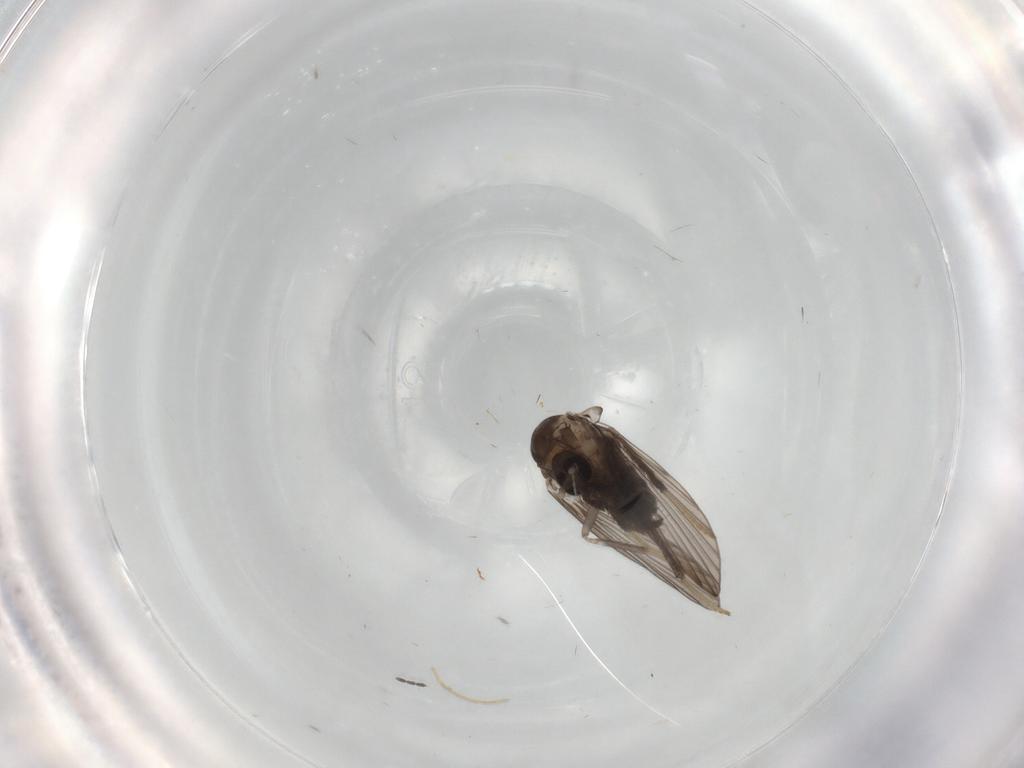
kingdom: Animalia
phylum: Arthropoda
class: Insecta
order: Diptera
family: Psychodidae
